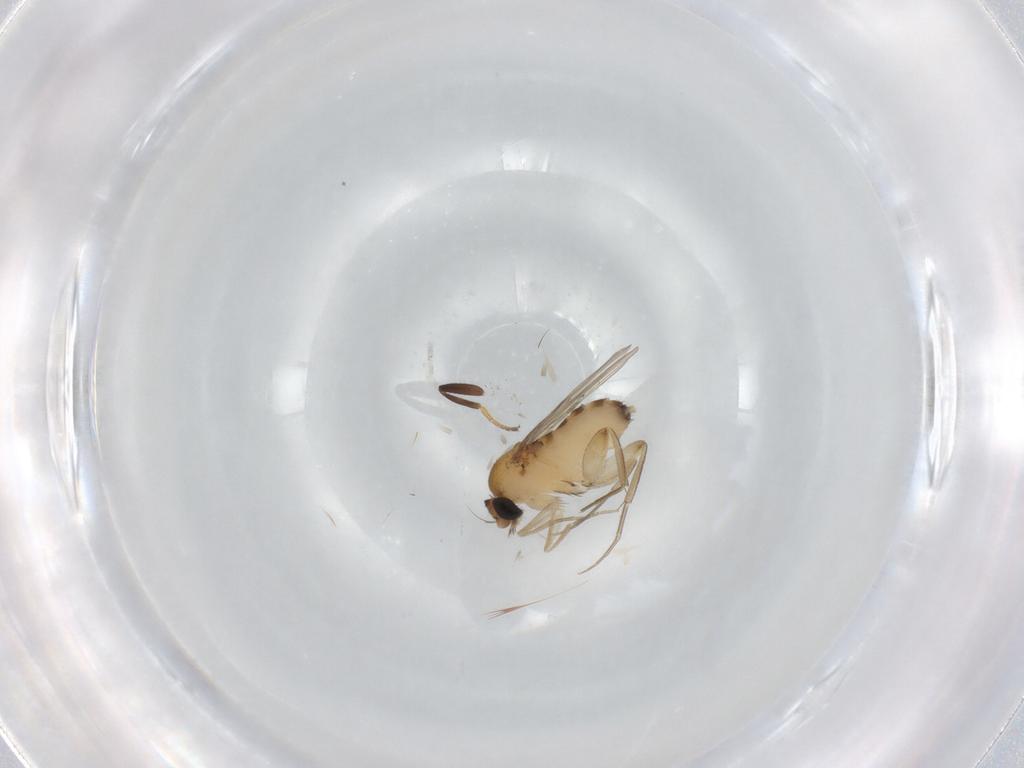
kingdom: Animalia
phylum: Arthropoda
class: Insecta
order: Diptera
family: Phoridae
